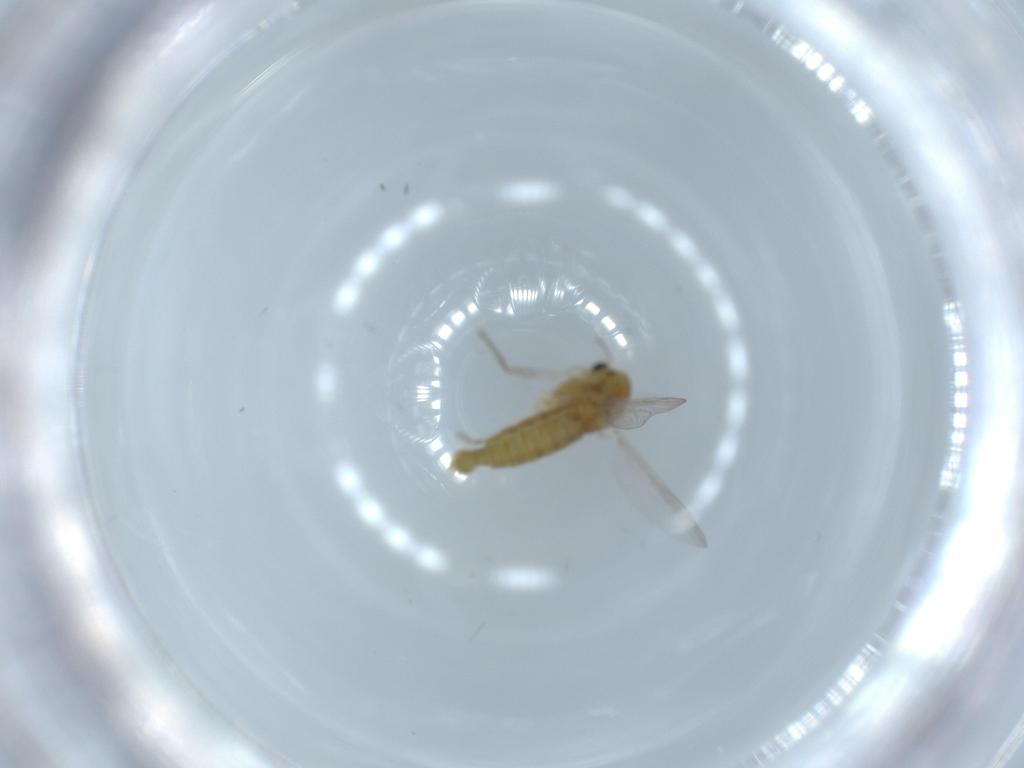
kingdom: Animalia
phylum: Arthropoda
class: Insecta
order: Diptera
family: Chironomidae
